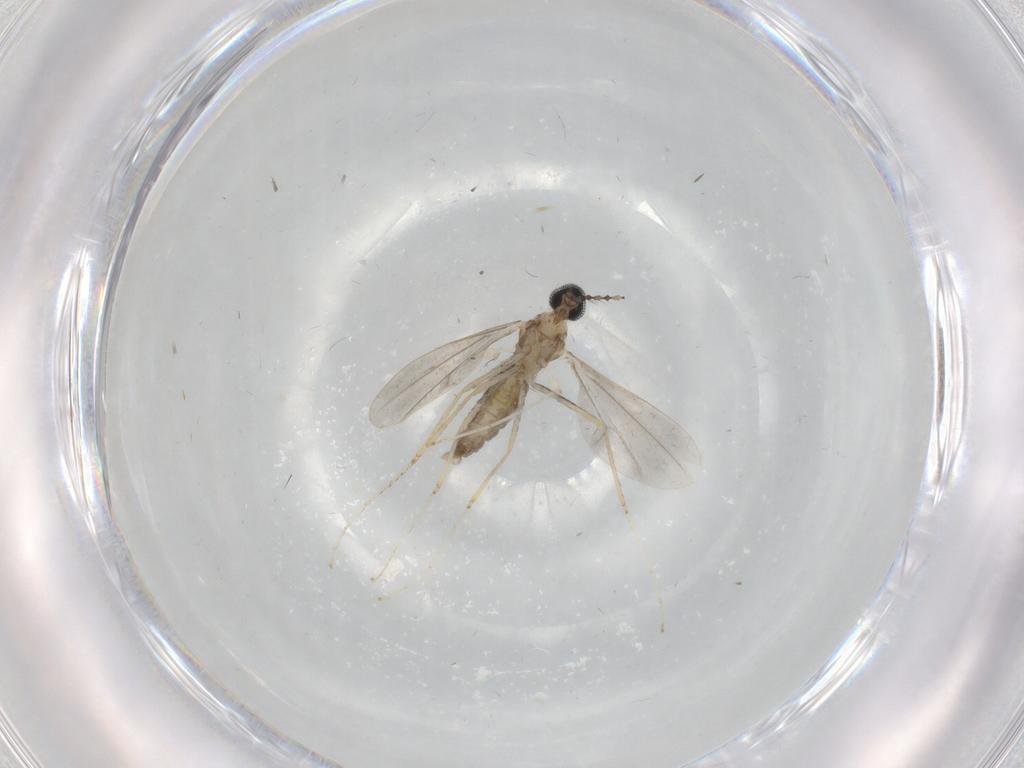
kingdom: Animalia
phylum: Arthropoda
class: Insecta
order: Diptera
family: Cecidomyiidae
